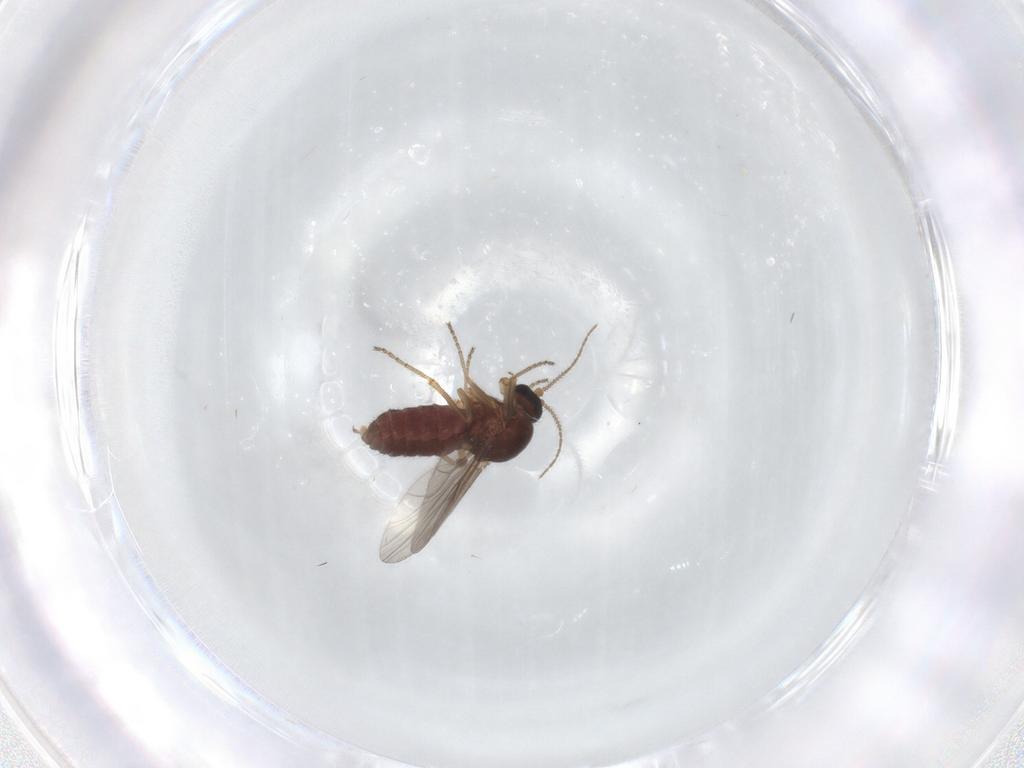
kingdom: Animalia
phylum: Arthropoda
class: Insecta
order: Diptera
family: Ceratopogonidae
